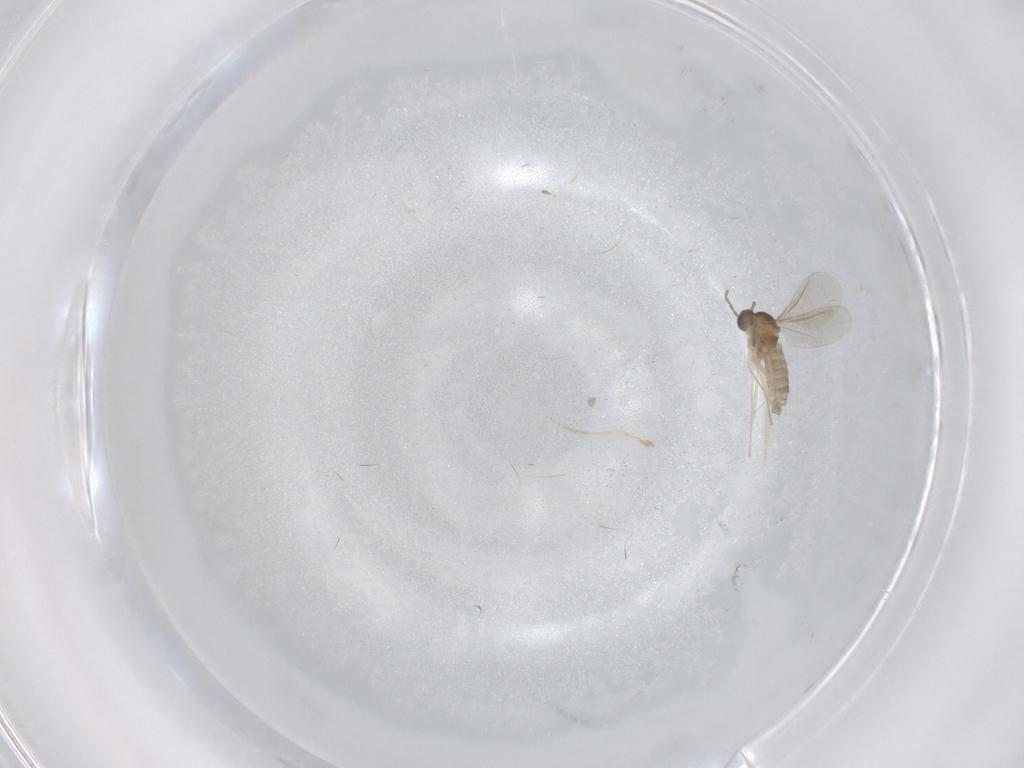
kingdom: Animalia
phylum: Arthropoda
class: Insecta
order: Diptera
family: Cecidomyiidae
